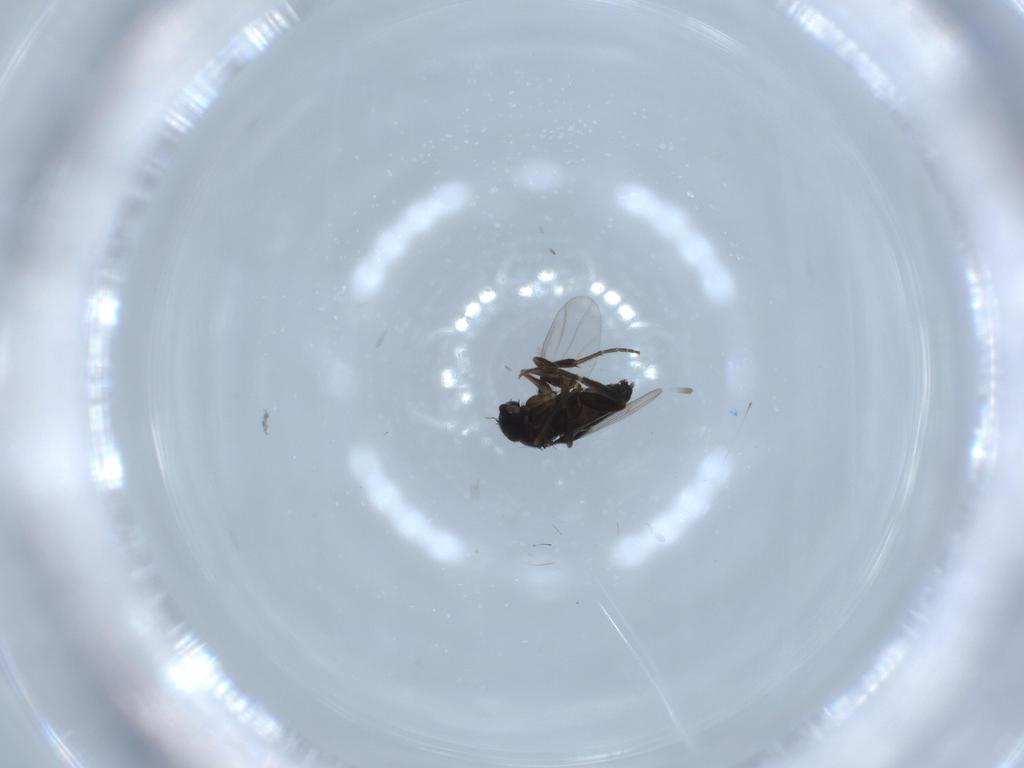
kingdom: Animalia
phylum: Arthropoda
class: Insecta
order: Diptera
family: Phoridae
